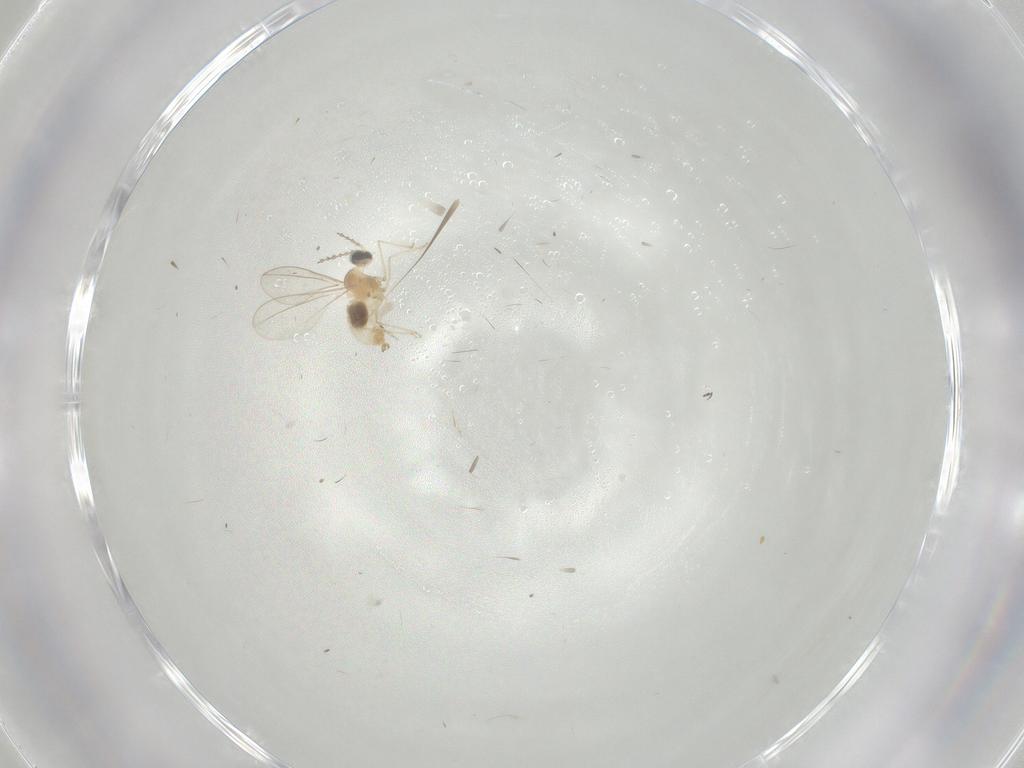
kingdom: Animalia
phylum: Arthropoda
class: Insecta
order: Diptera
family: Cecidomyiidae
